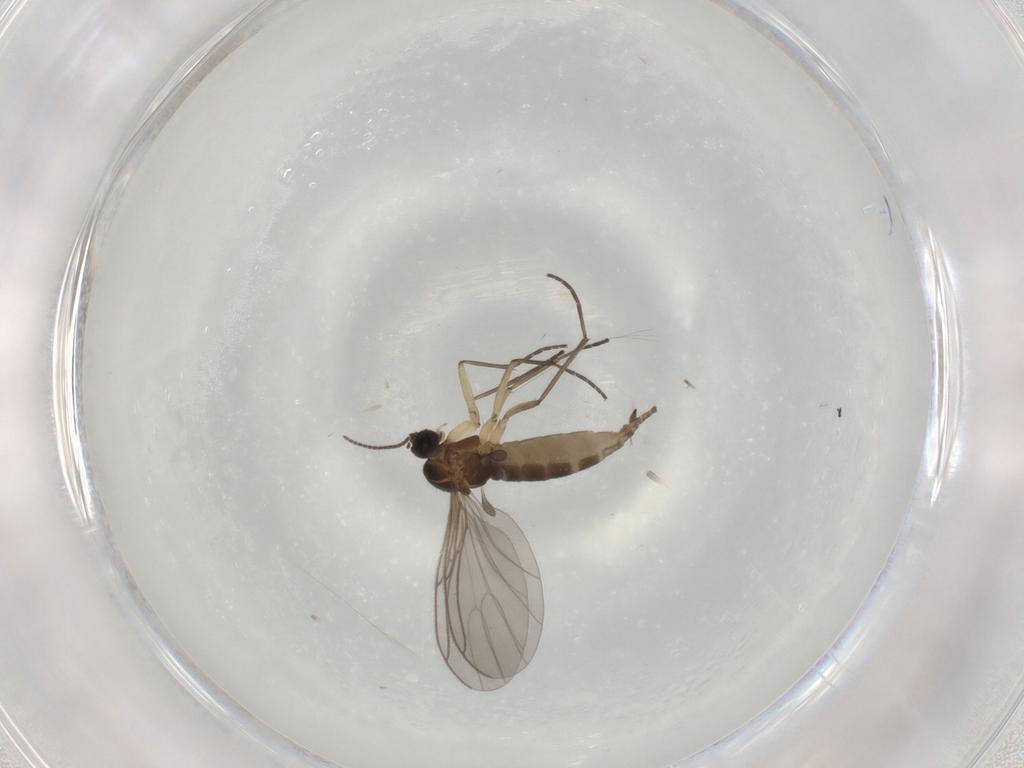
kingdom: Animalia
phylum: Arthropoda
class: Insecta
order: Diptera
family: Sciaridae
